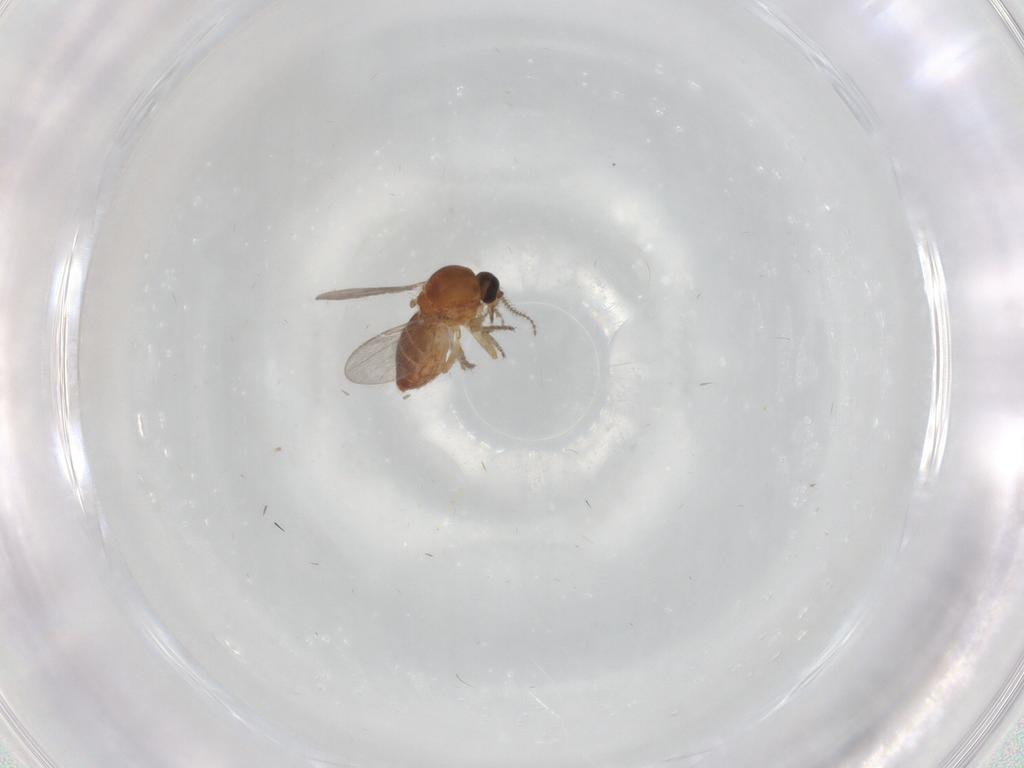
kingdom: Animalia
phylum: Arthropoda
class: Insecta
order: Diptera
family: Ceratopogonidae
